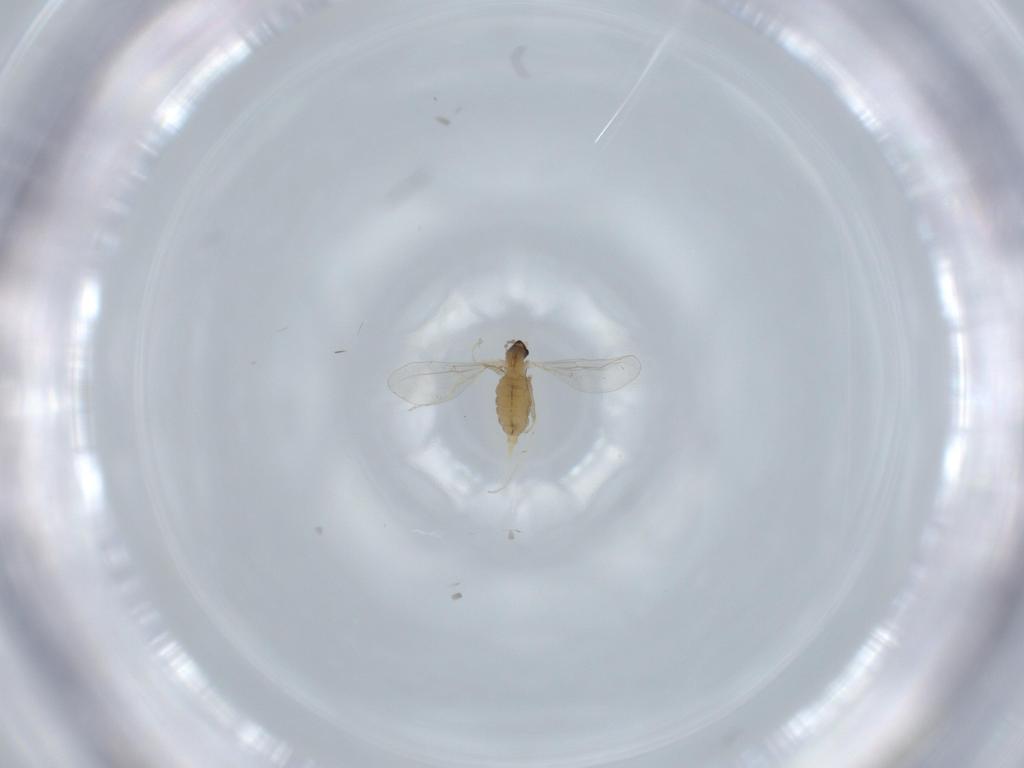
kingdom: Animalia
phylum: Arthropoda
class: Insecta
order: Diptera
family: Cecidomyiidae
